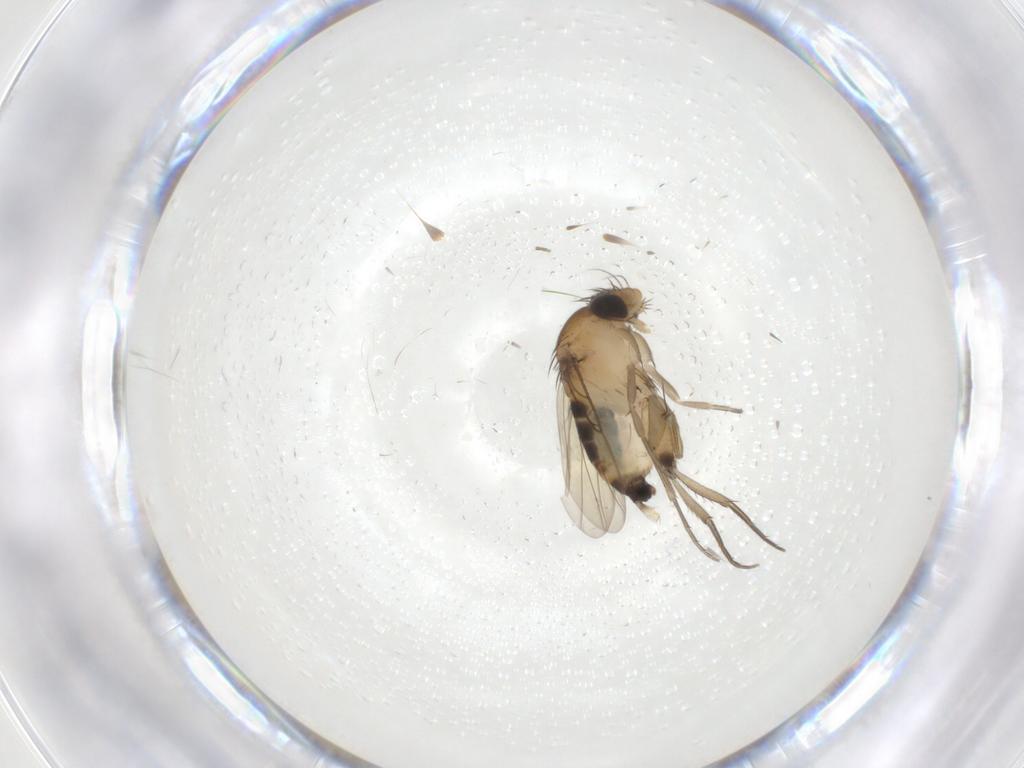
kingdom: Animalia
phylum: Arthropoda
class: Insecta
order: Diptera
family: Phoridae
